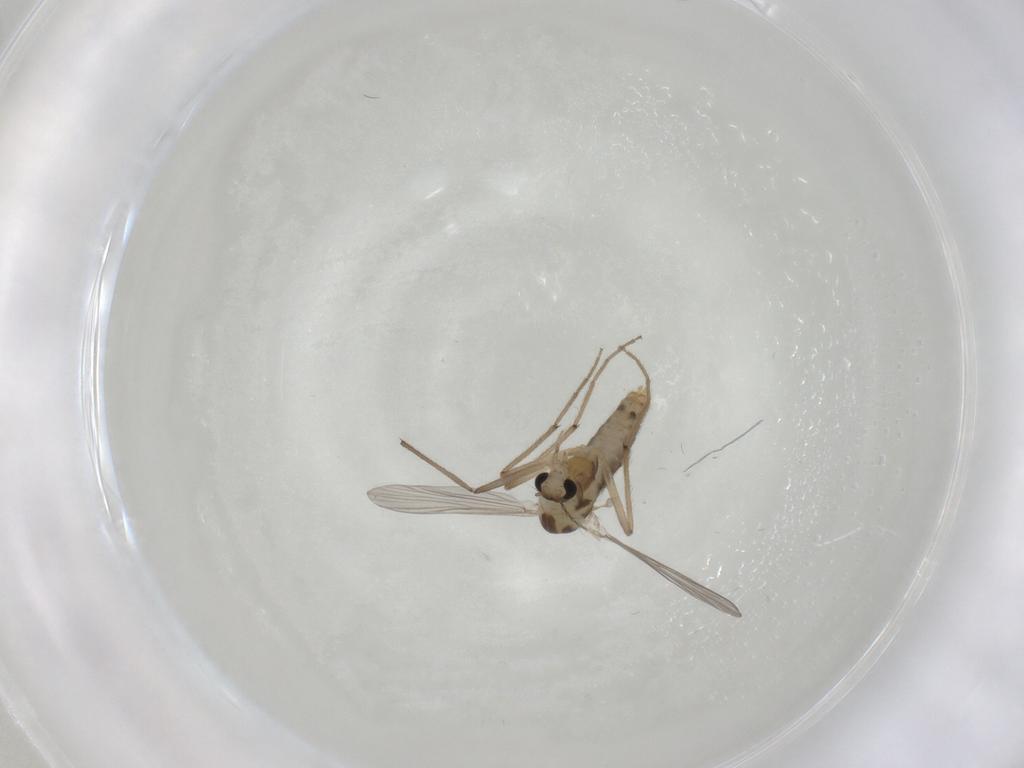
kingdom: Animalia
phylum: Arthropoda
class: Insecta
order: Diptera
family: Chironomidae
